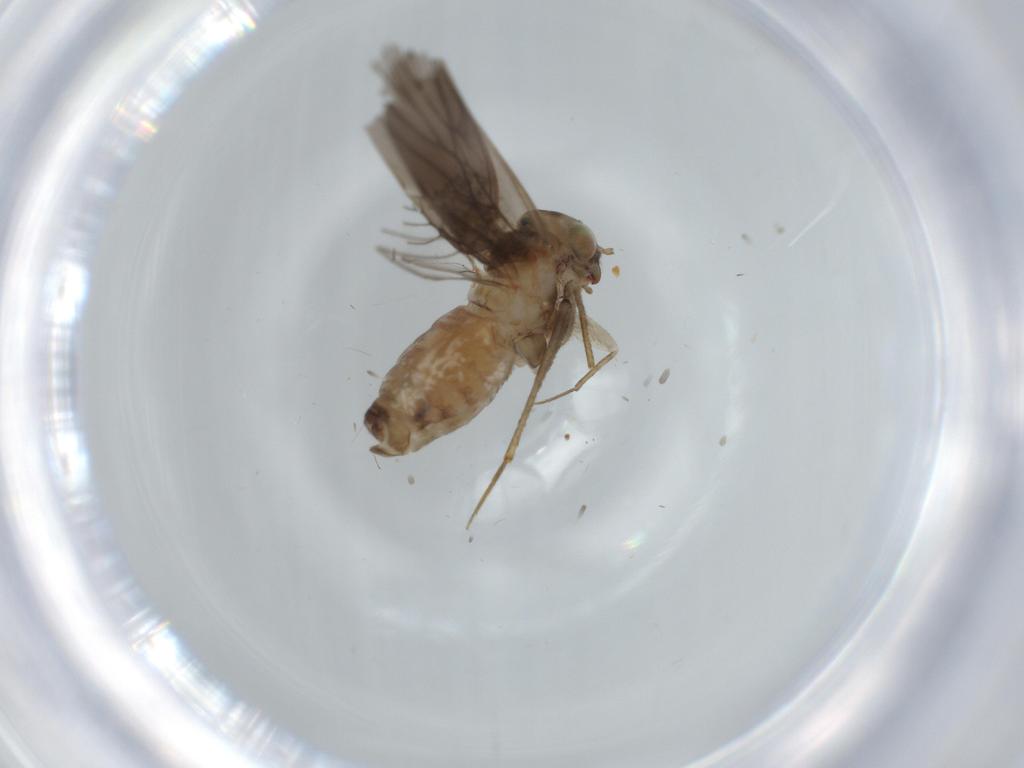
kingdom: Animalia
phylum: Arthropoda
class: Insecta
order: Psocodea
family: Lepidopsocidae
